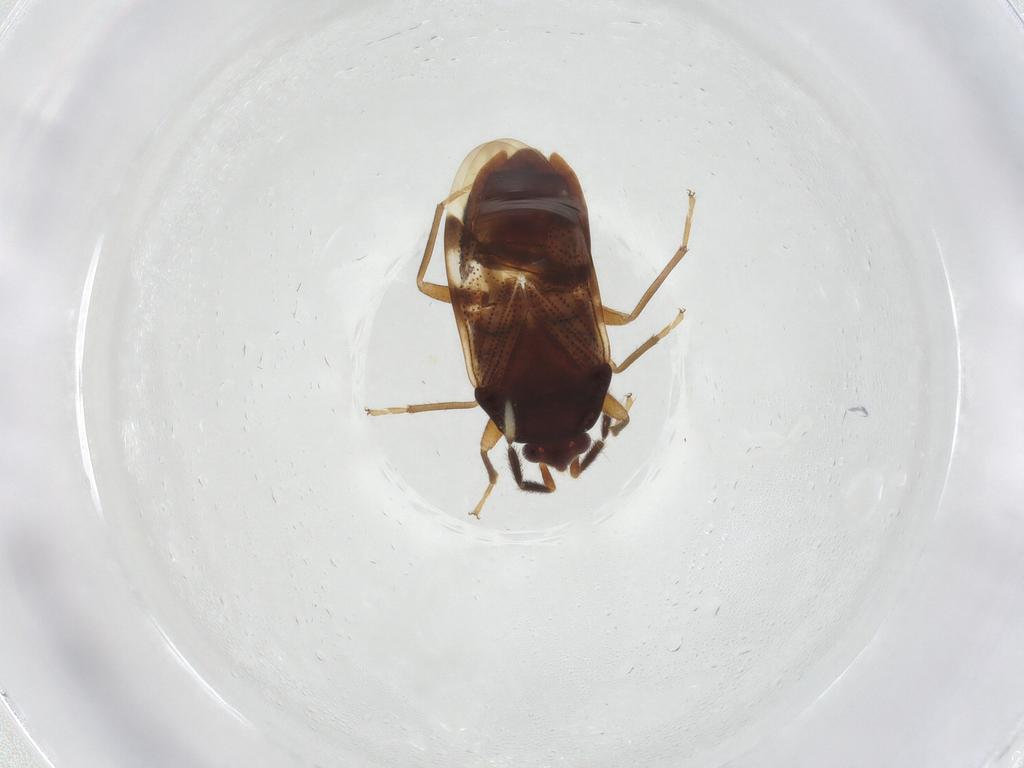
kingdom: Animalia
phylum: Arthropoda
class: Insecta
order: Hemiptera
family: Rhyparochromidae
